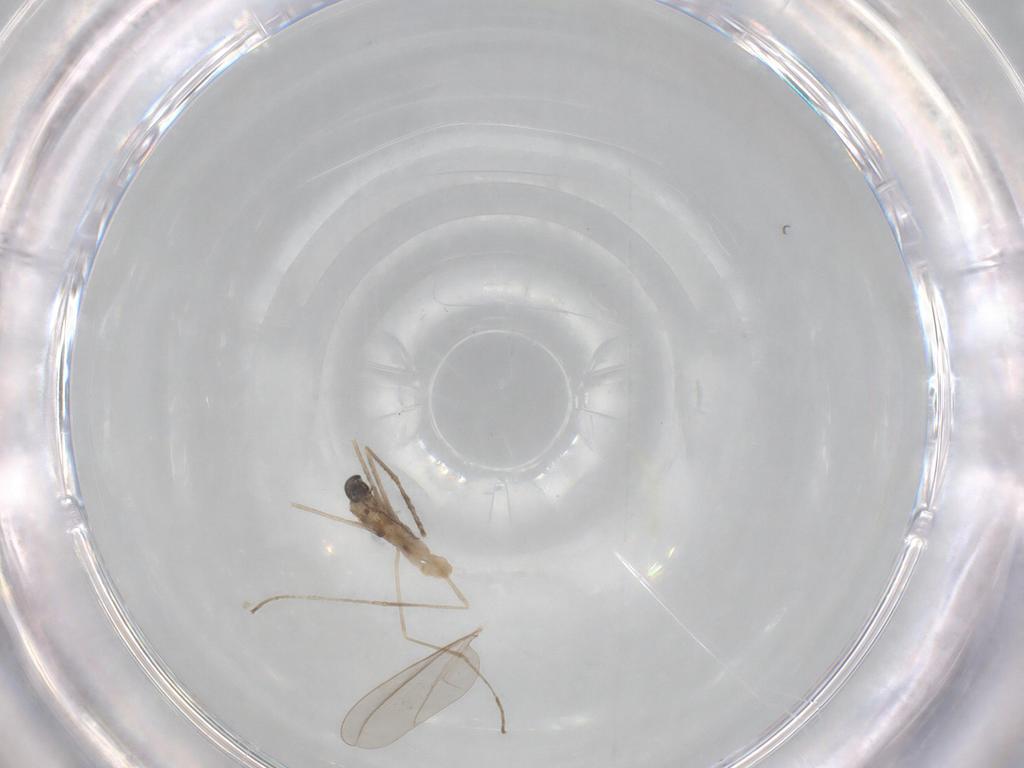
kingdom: Animalia
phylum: Arthropoda
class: Insecta
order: Diptera
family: Cecidomyiidae
